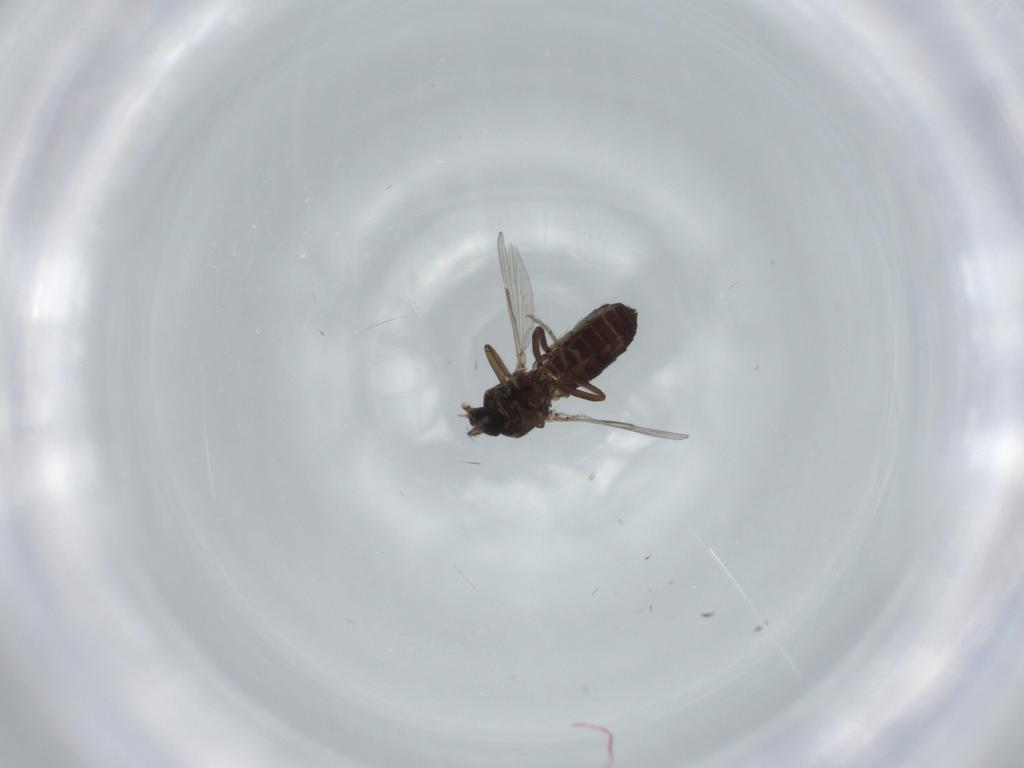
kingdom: Animalia
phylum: Arthropoda
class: Insecta
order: Diptera
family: Ceratopogonidae
